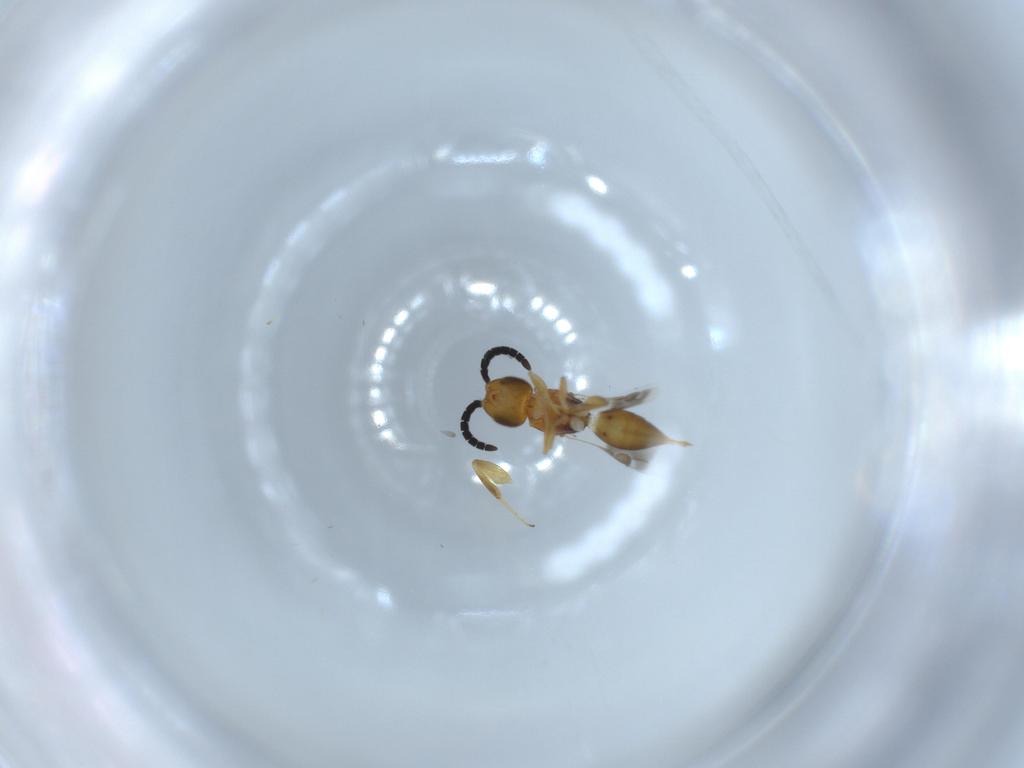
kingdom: Animalia
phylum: Arthropoda
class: Insecta
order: Hymenoptera
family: Megaspilidae
